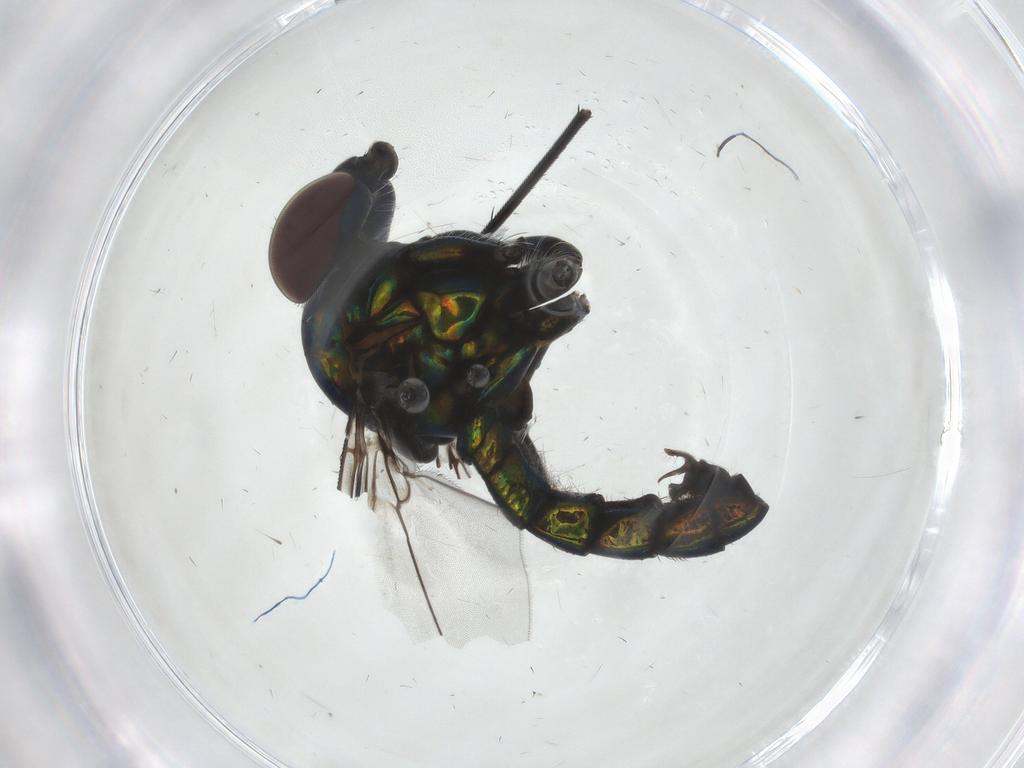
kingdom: Animalia
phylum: Arthropoda
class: Insecta
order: Diptera
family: Dolichopodidae
